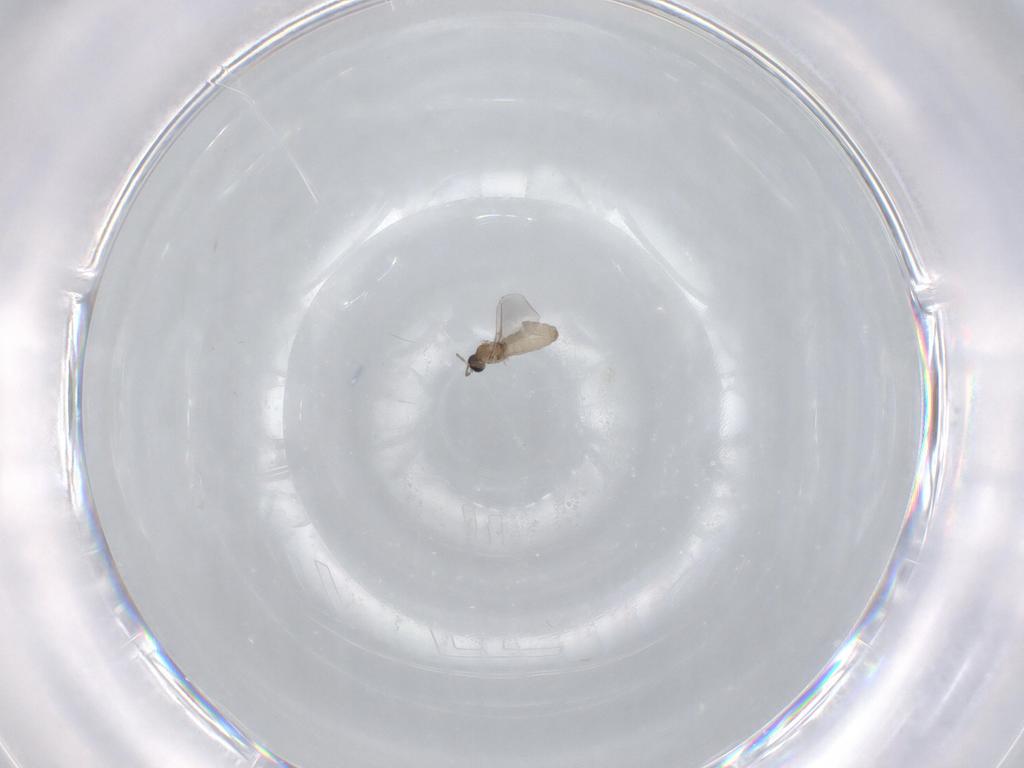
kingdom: Animalia
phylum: Arthropoda
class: Insecta
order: Diptera
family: Cecidomyiidae
